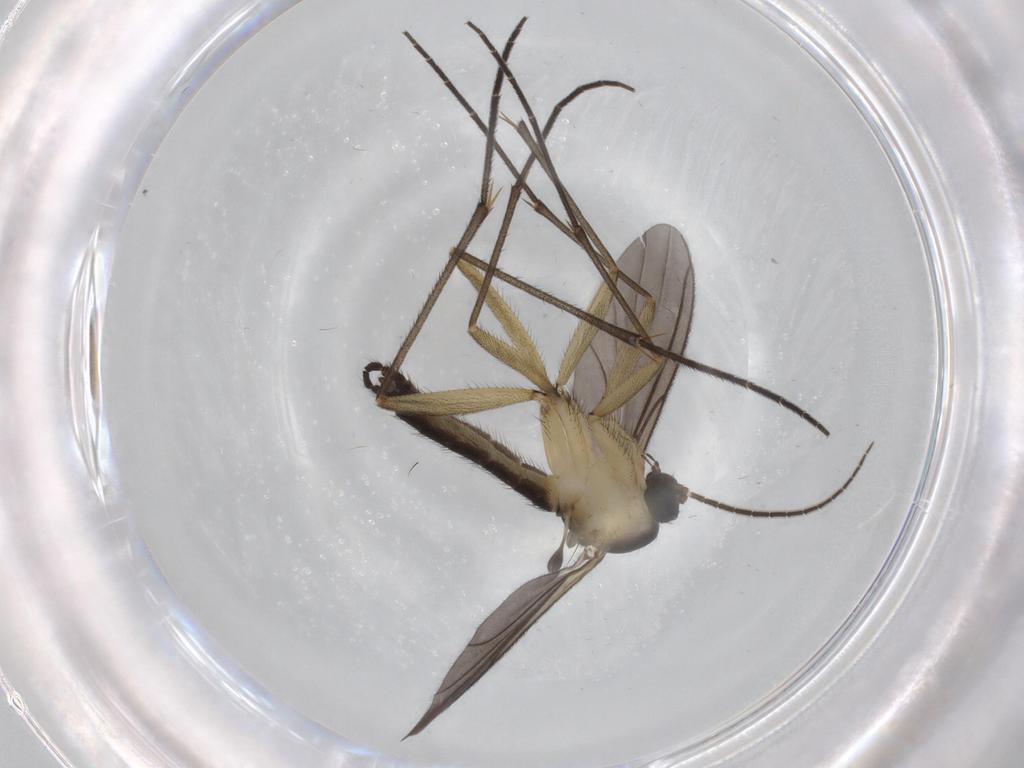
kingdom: Animalia
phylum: Arthropoda
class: Insecta
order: Diptera
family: Sciaridae
